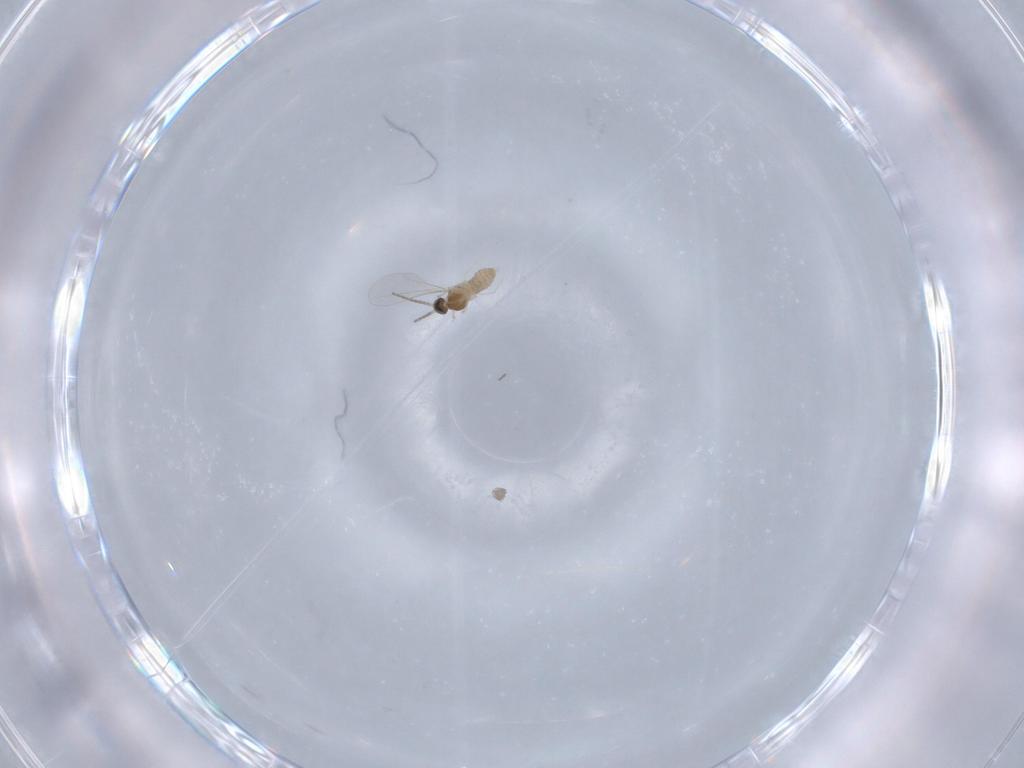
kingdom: Animalia
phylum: Arthropoda
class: Insecta
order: Diptera
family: Cecidomyiidae
